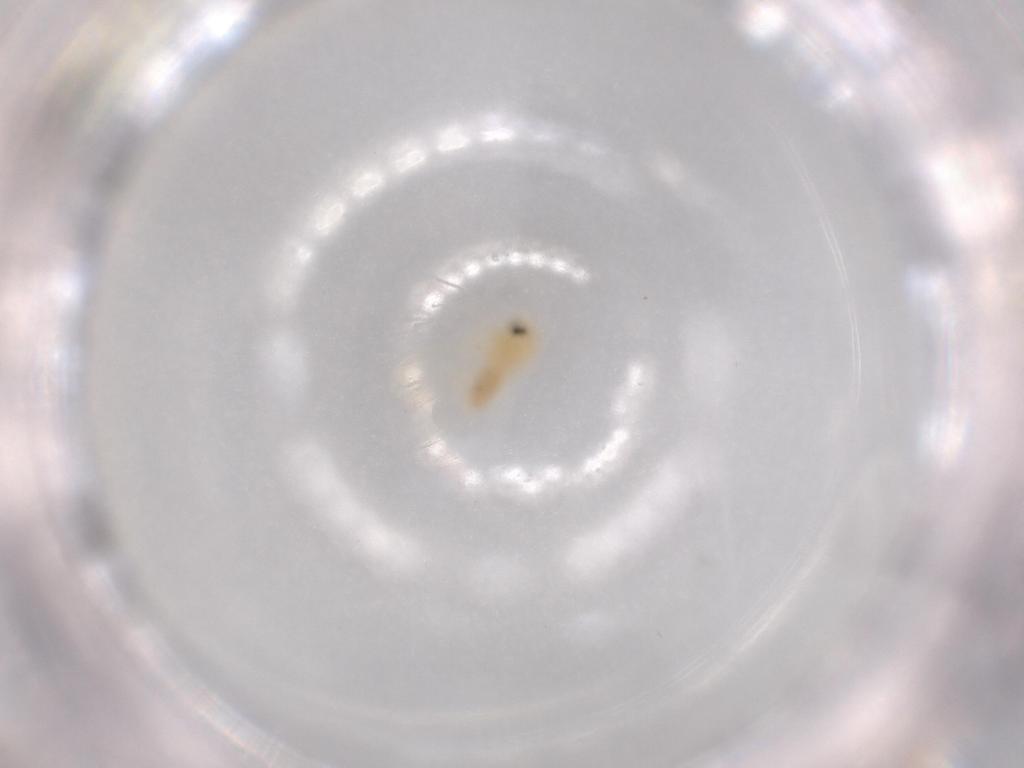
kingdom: Animalia
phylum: Arthropoda
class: Insecta
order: Hemiptera
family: Aleyrodidae
